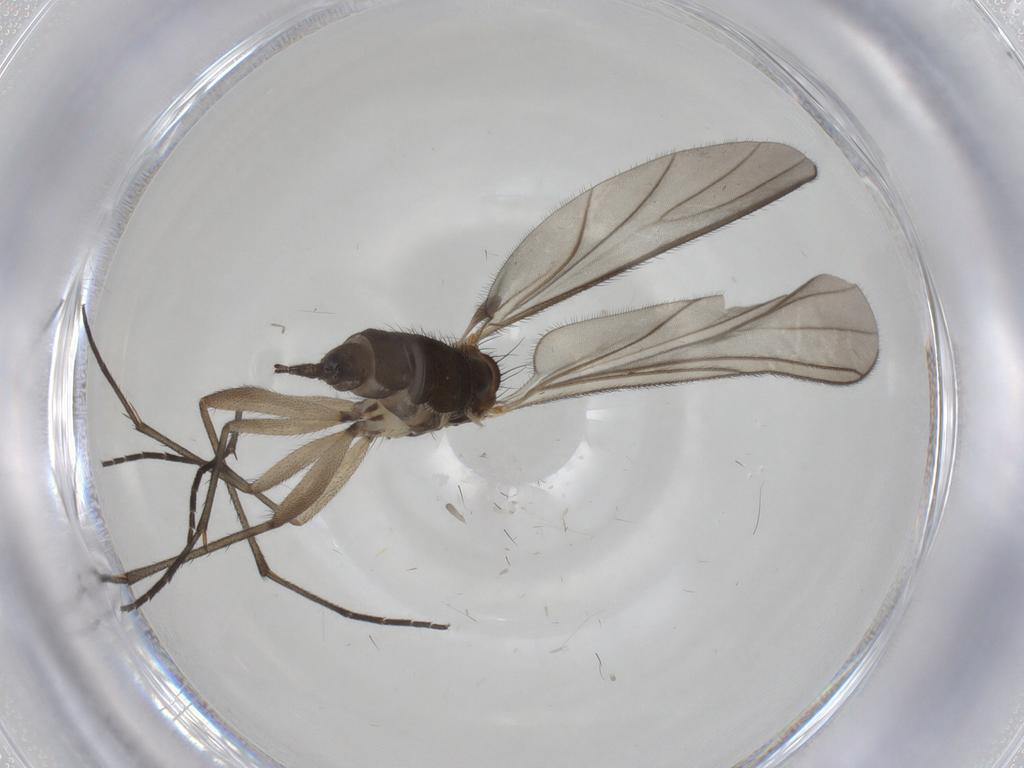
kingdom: Animalia
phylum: Arthropoda
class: Insecta
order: Diptera
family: Sciaridae
